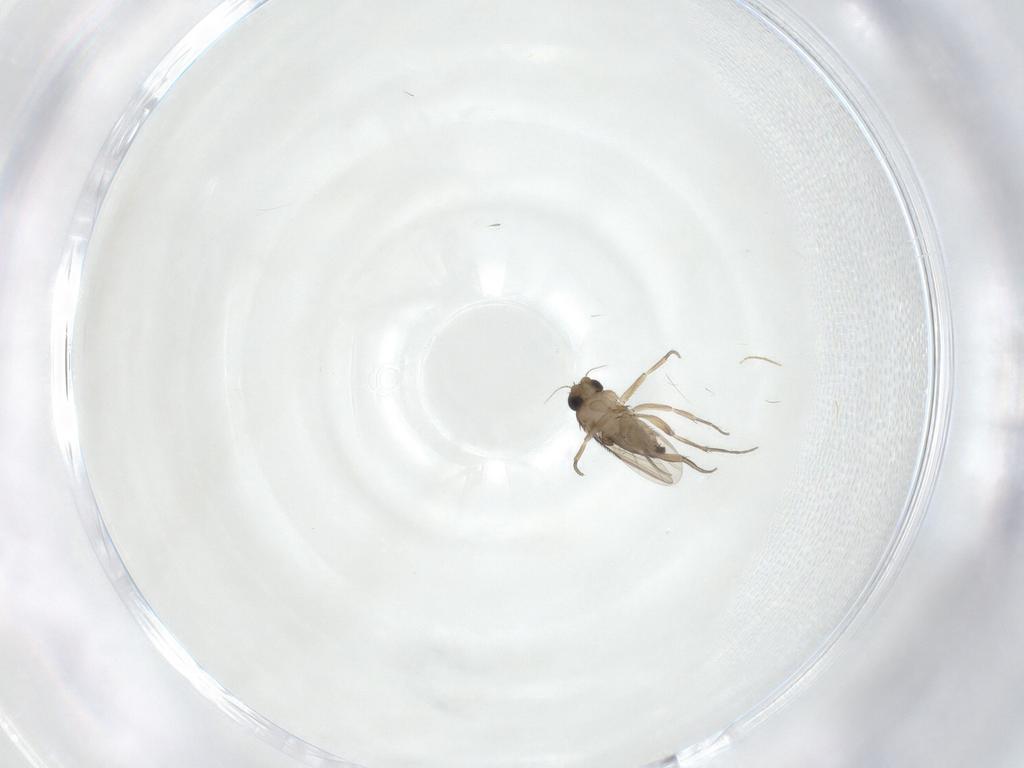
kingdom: Animalia
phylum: Arthropoda
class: Insecta
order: Diptera
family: Phoridae
